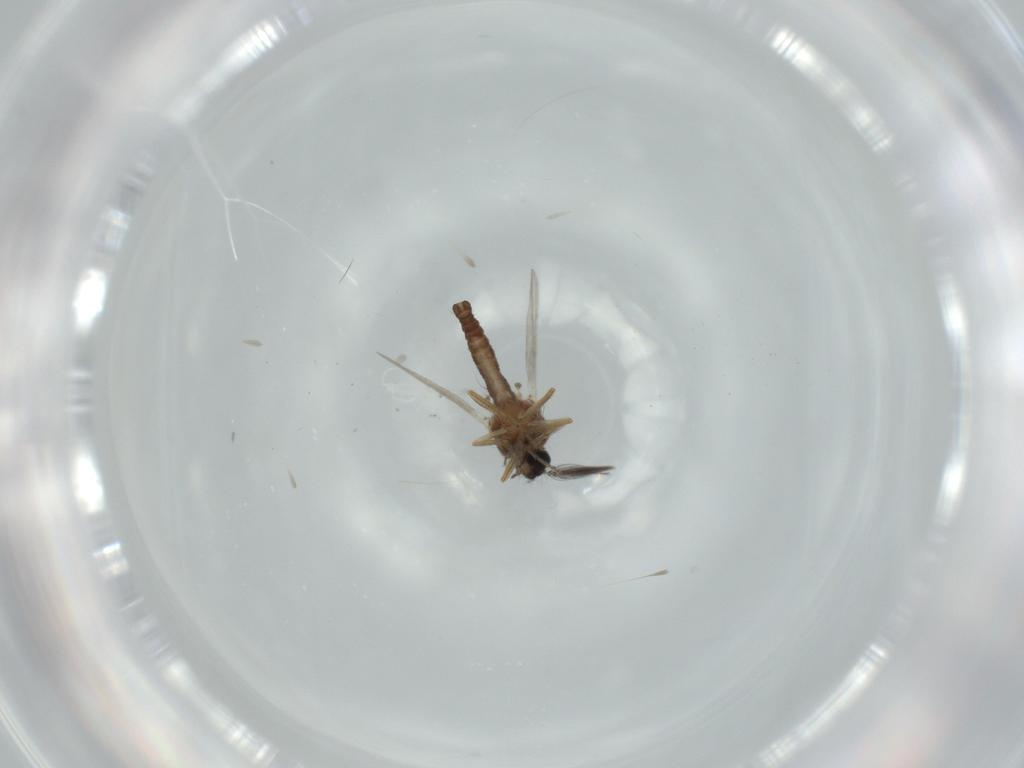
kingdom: Animalia
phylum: Arthropoda
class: Insecta
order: Diptera
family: Ceratopogonidae
